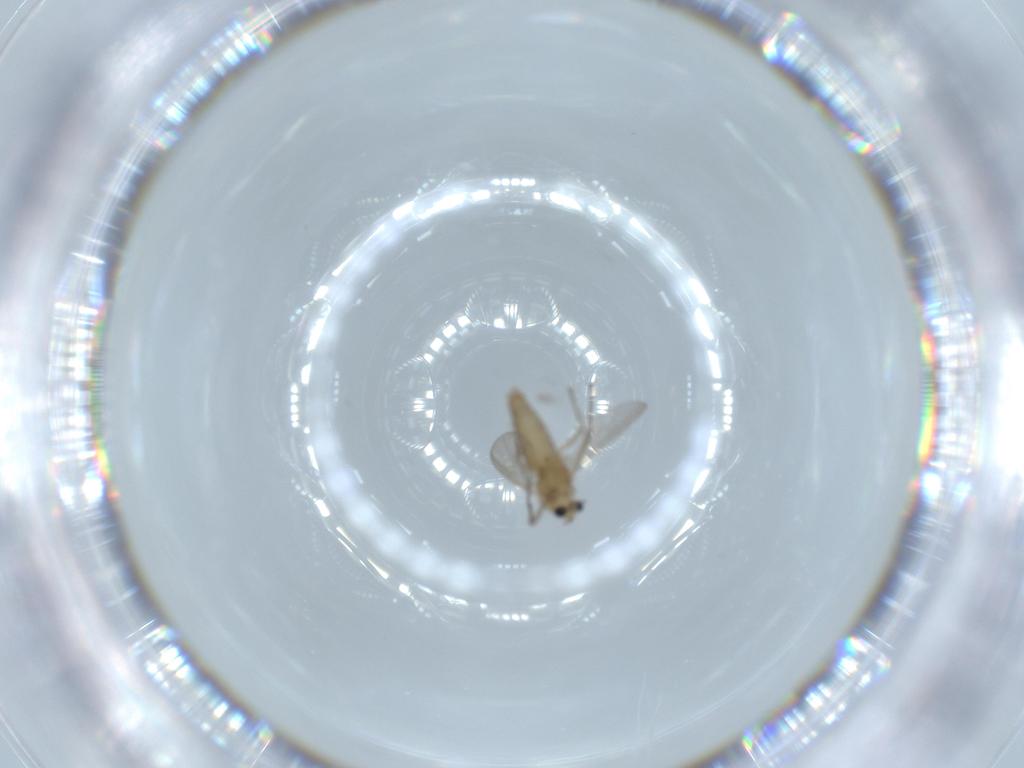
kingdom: Animalia
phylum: Arthropoda
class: Insecta
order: Diptera
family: Chironomidae
